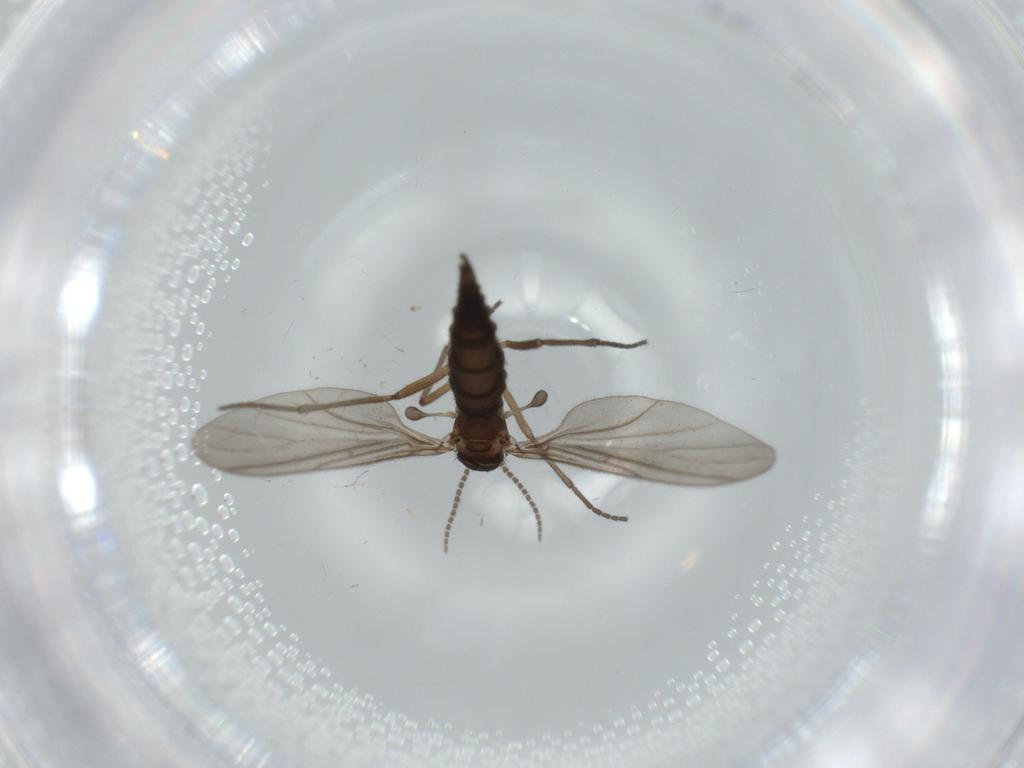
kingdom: Animalia
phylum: Arthropoda
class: Insecta
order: Diptera
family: Sciaridae
